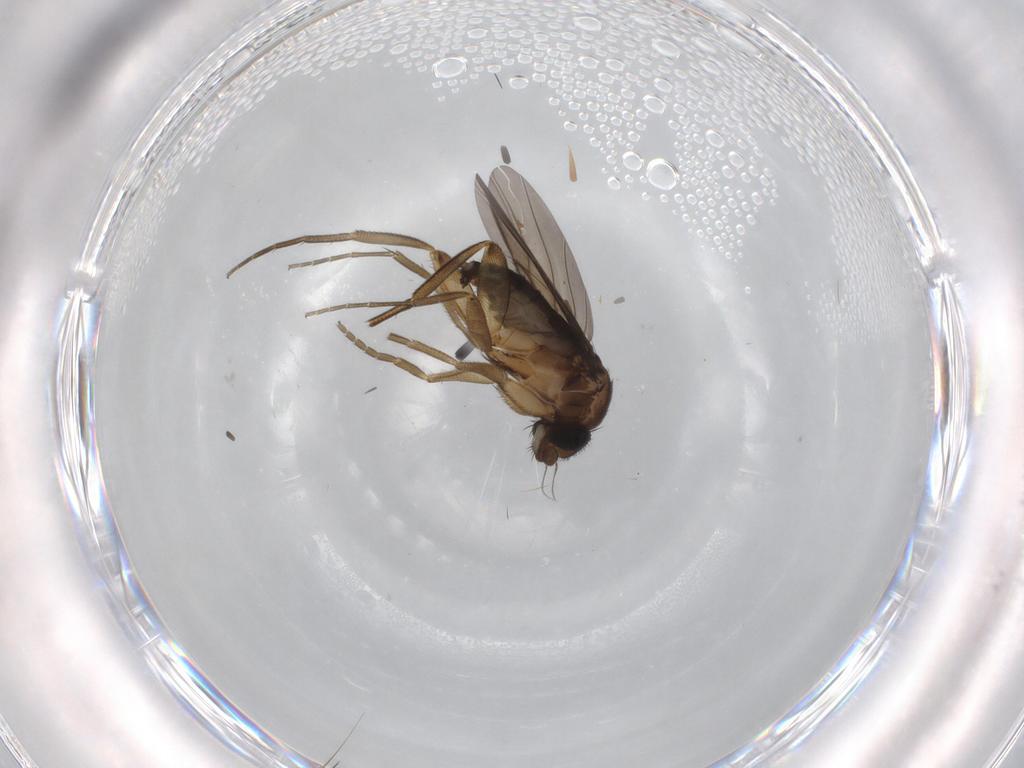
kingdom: Animalia
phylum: Arthropoda
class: Insecta
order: Diptera
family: Phoridae
